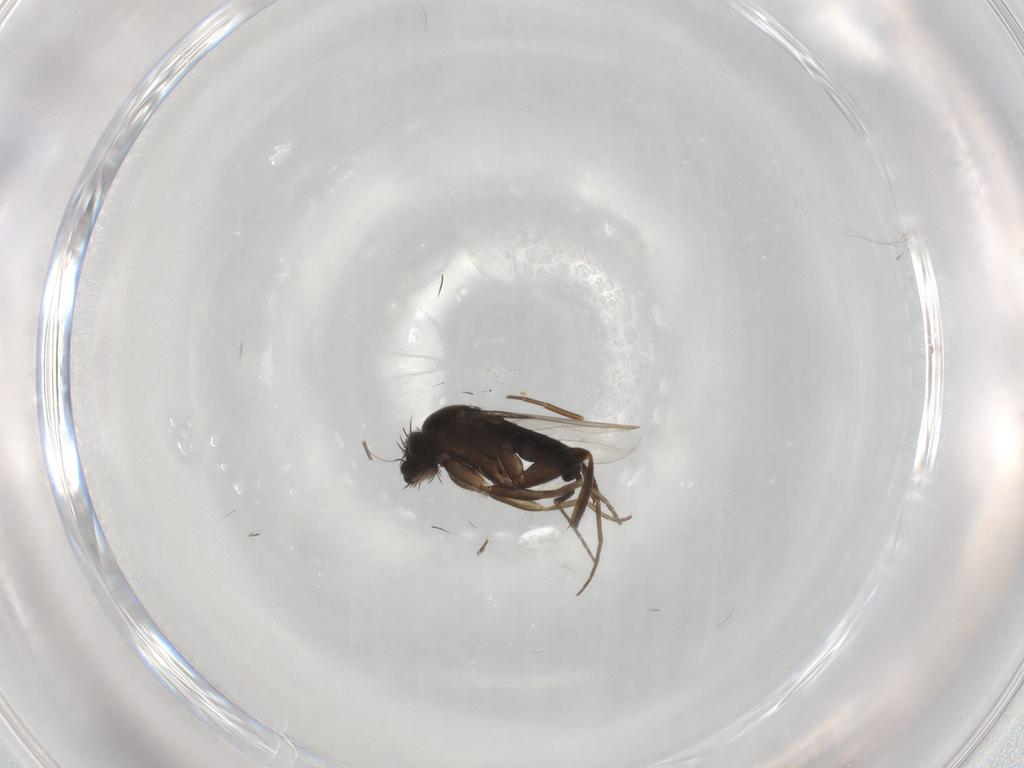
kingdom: Animalia
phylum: Arthropoda
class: Insecta
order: Diptera
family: Phoridae
